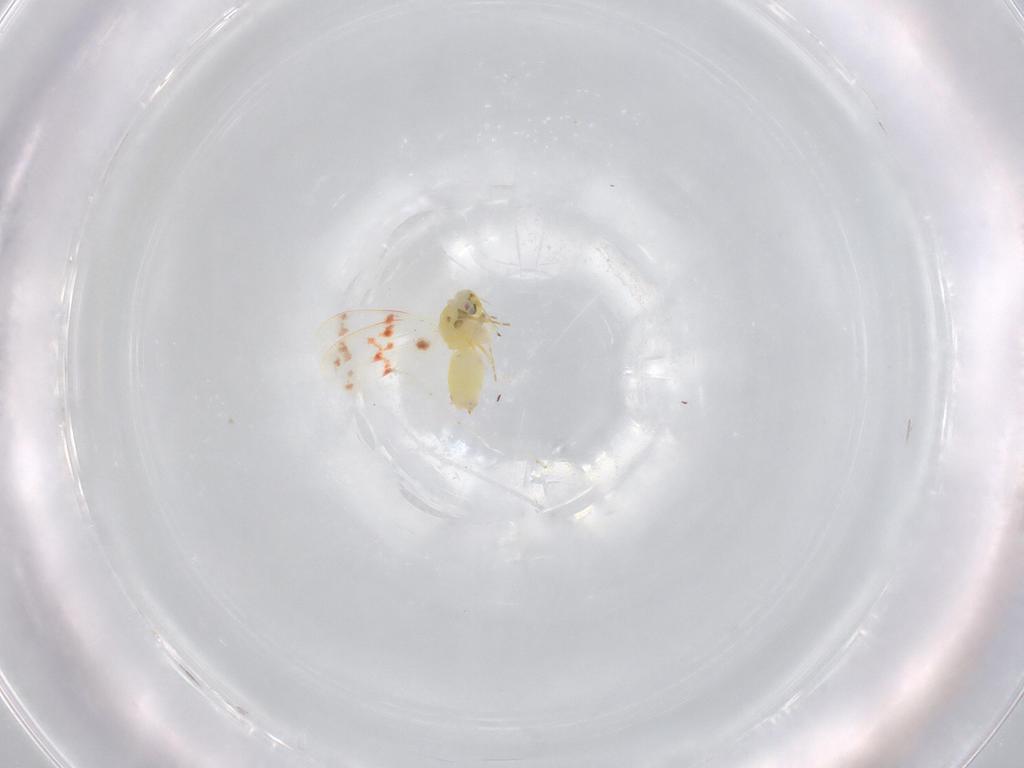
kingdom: Animalia
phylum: Arthropoda
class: Insecta
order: Hemiptera
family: Aleyrodidae
